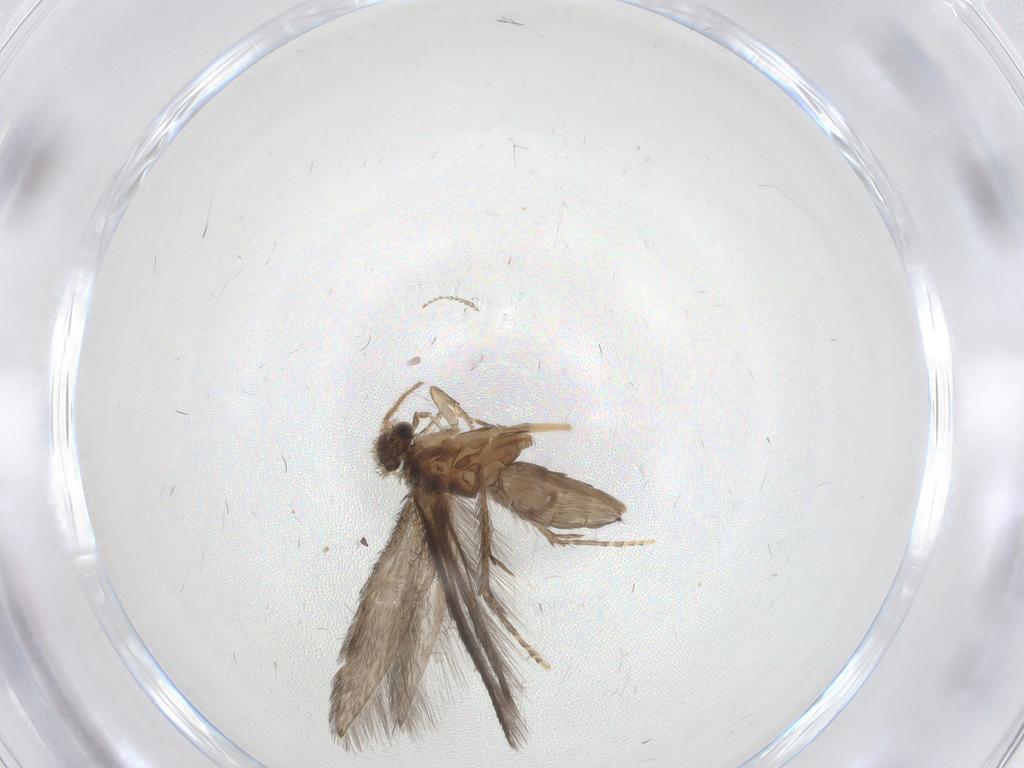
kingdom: Animalia
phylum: Arthropoda
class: Insecta
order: Trichoptera
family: Hydroptilidae
